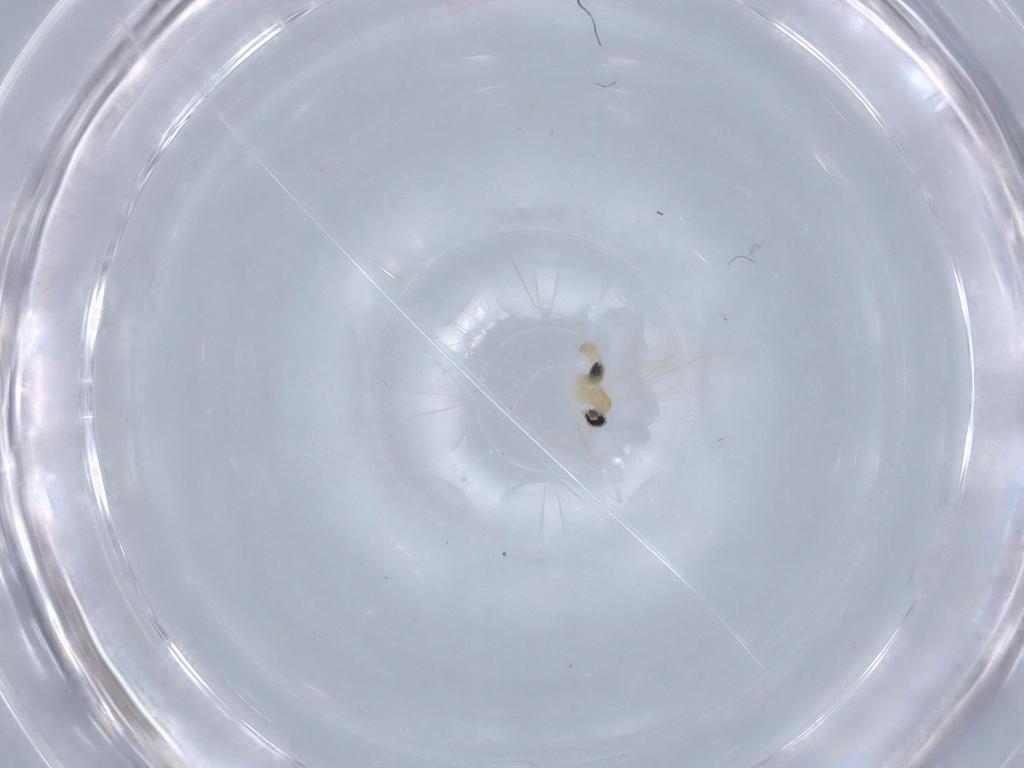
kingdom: Animalia
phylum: Arthropoda
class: Insecta
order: Diptera
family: Cecidomyiidae
